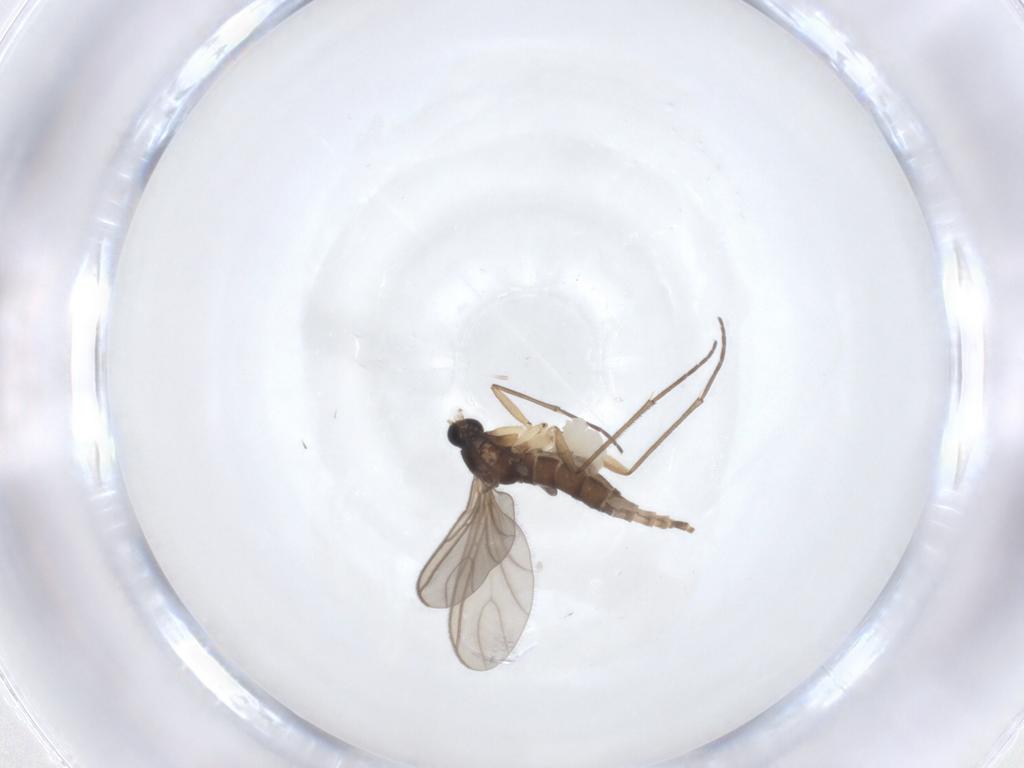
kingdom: Animalia
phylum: Arthropoda
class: Insecta
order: Diptera
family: Sciaridae
